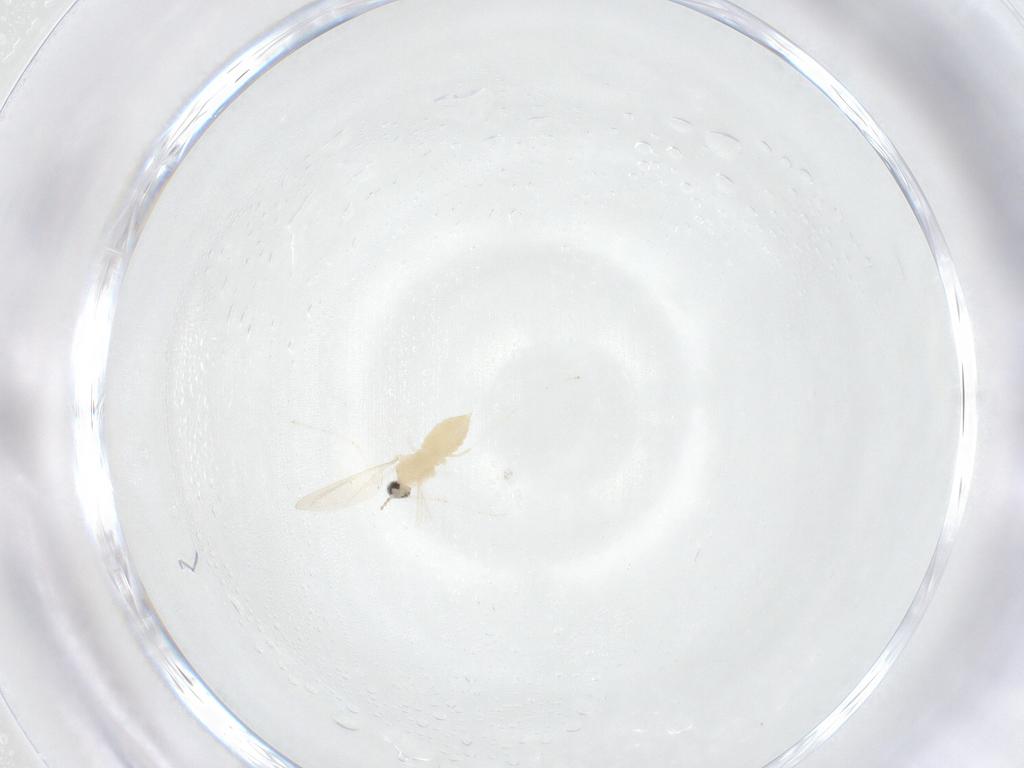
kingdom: Animalia
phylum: Arthropoda
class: Insecta
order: Diptera
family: Cecidomyiidae
